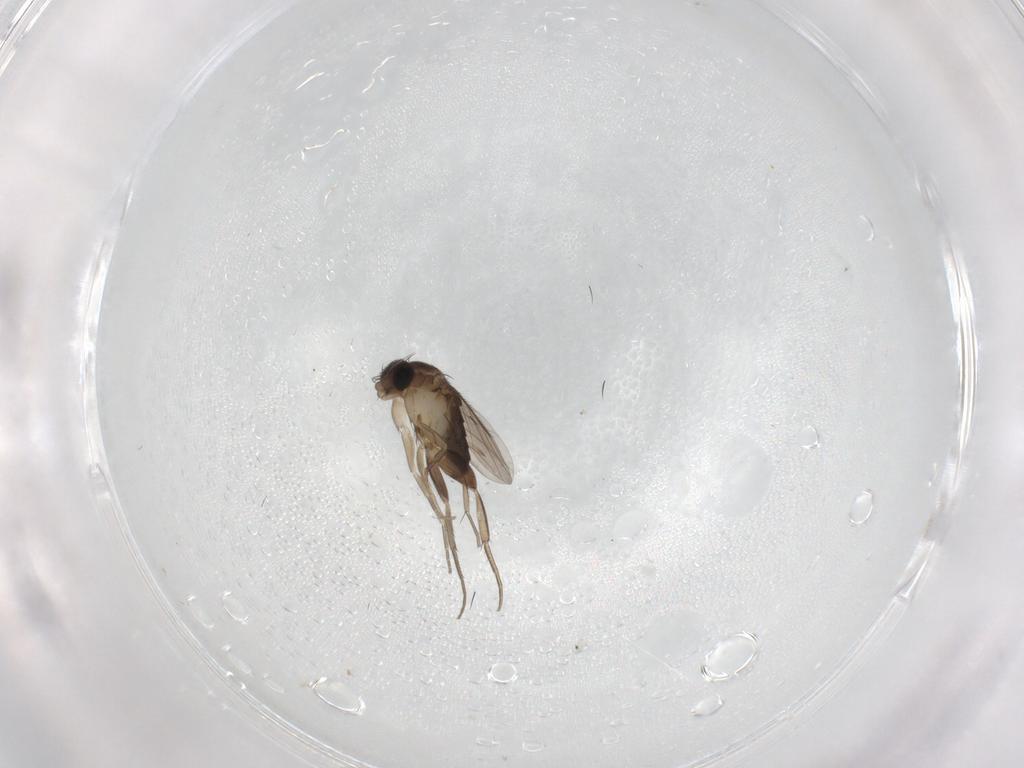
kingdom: Animalia
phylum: Arthropoda
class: Insecta
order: Diptera
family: Phoridae
